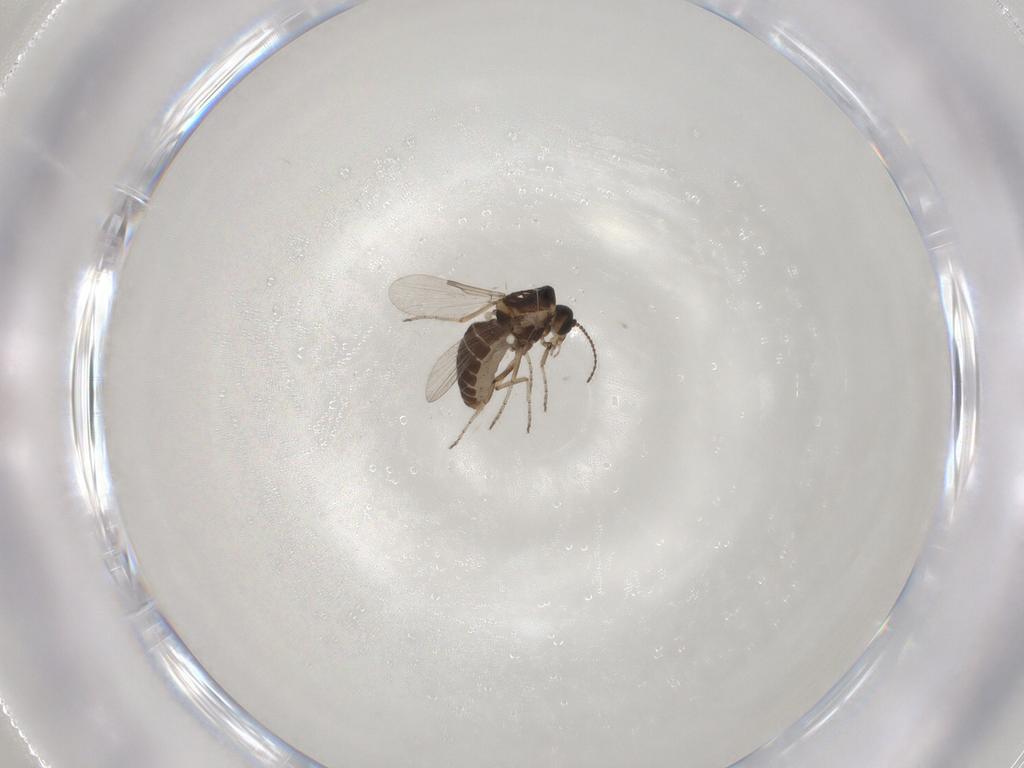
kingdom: Animalia
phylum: Arthropoda
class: Insecta
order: Diptera
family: Ceratopogonidae
